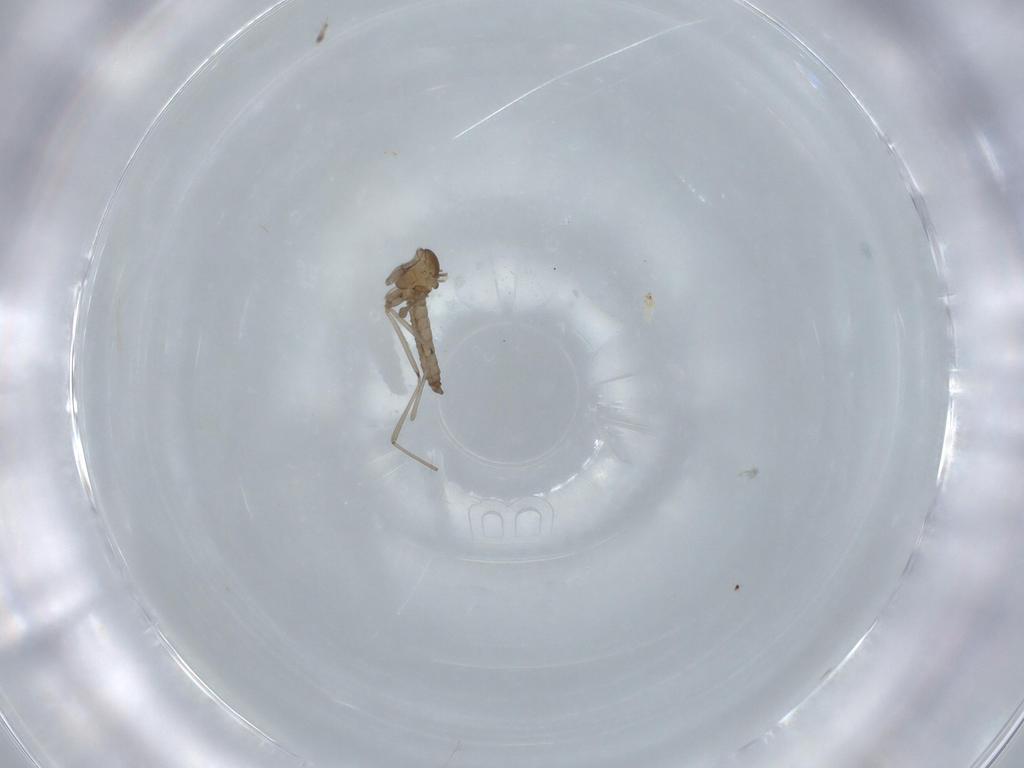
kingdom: Animalia
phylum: Arthropoda
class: Insecta
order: Diptera
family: Cecidomyiidae
